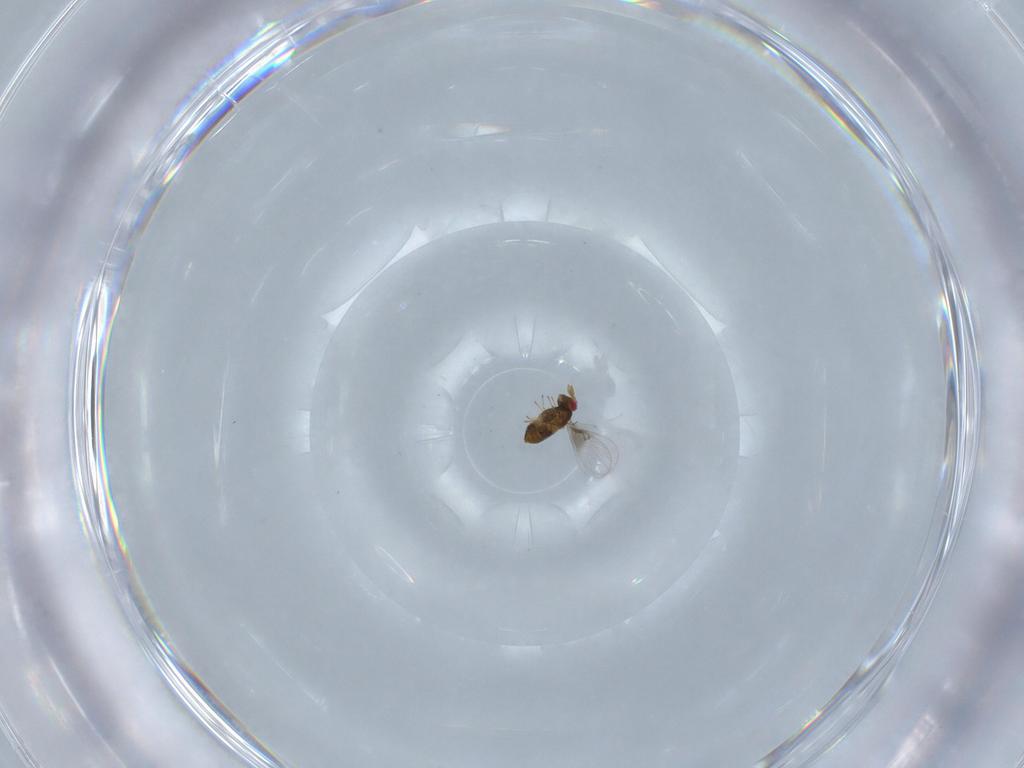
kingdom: Animalia
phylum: Arthropoda
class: Insecta
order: Hymenoptera
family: Trichogrammatidae
